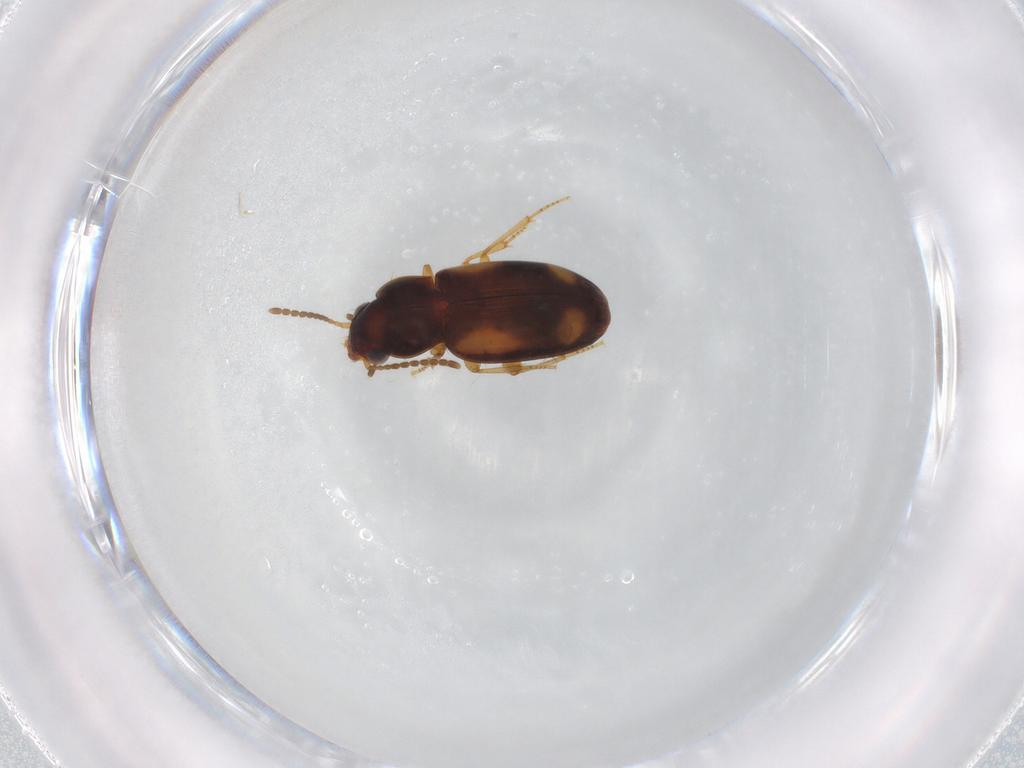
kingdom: Animalia
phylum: Arthropoda
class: Insecta
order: Coleoptera
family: Carabidae
